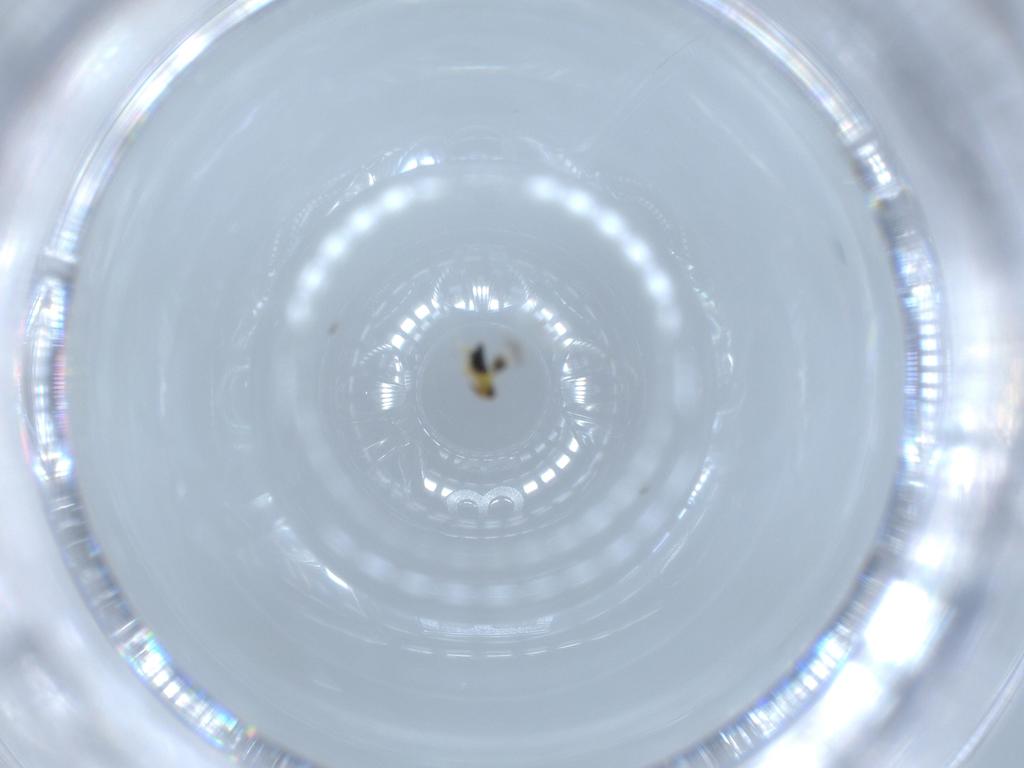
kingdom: Animalia
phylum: Arthropoda
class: Insecta
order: Hymenoptera
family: Signiphoridae
